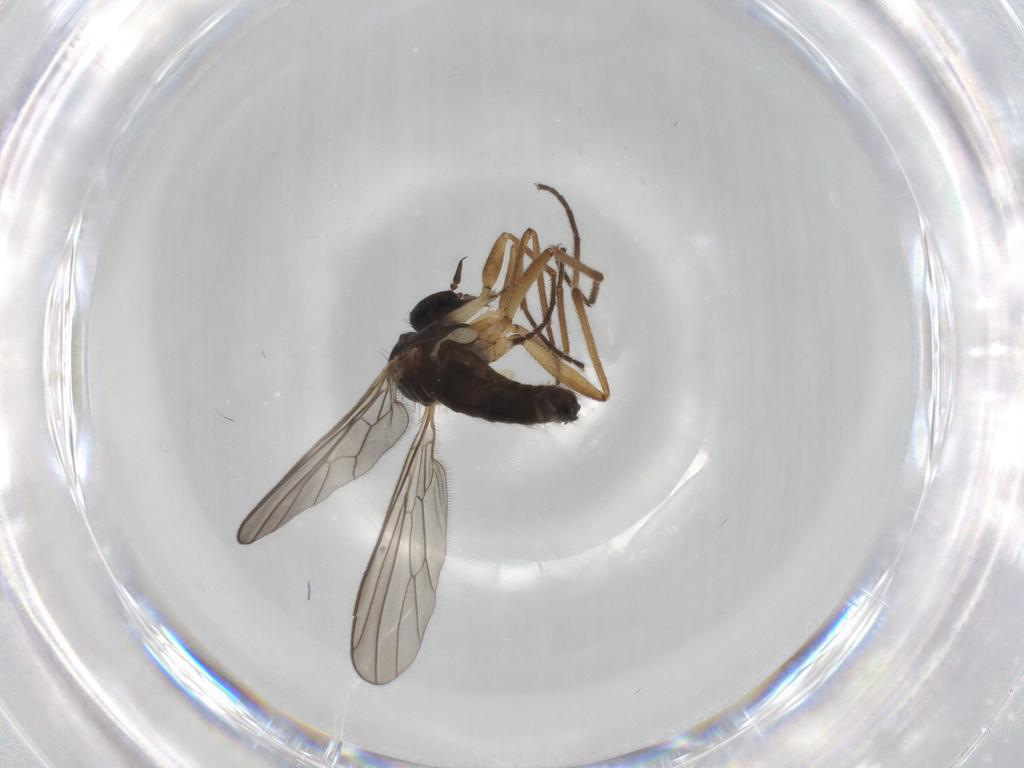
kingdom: Animalia
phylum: Arthropoda
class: Insecta
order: Diptera
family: Empididae
